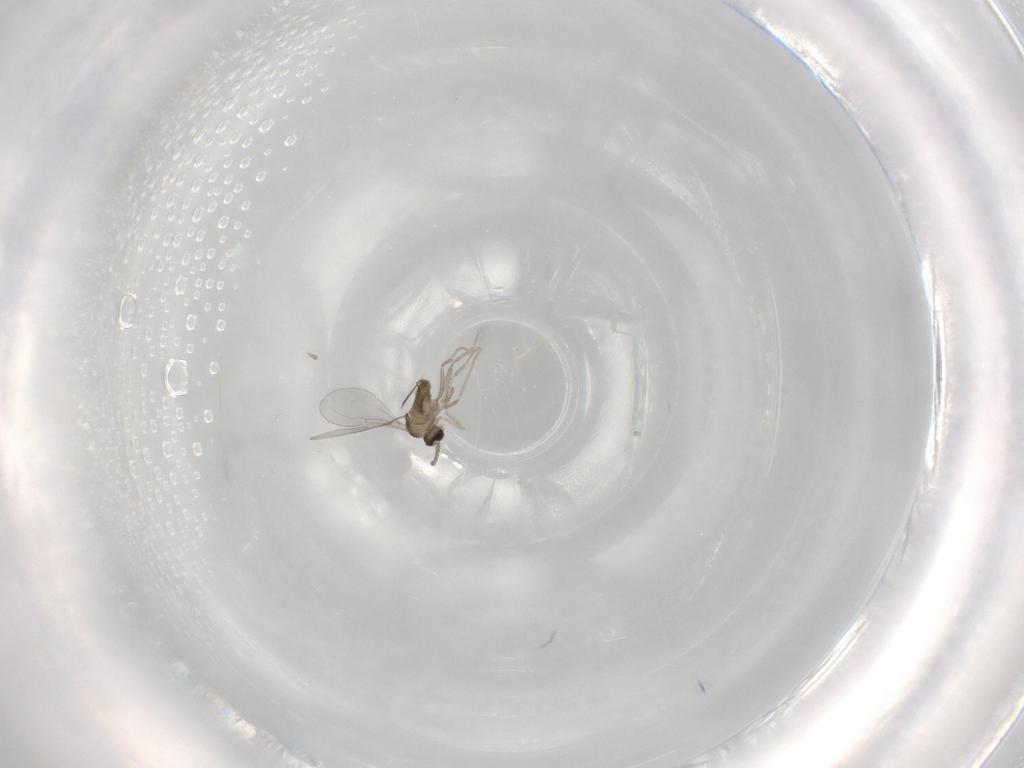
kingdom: Animalia
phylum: Arthropoda
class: Insecta
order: Diptera
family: Cecidomyiidae
